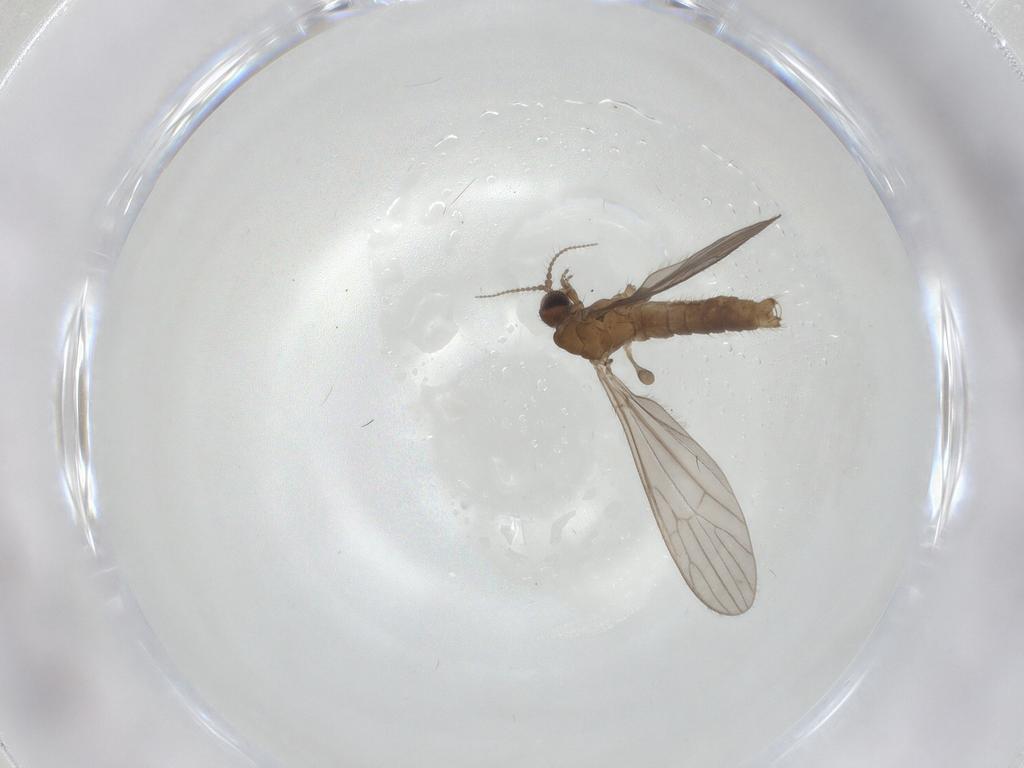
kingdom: Animalia
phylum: Arthropoda
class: Insecta
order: Diptera
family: Limoniidae
